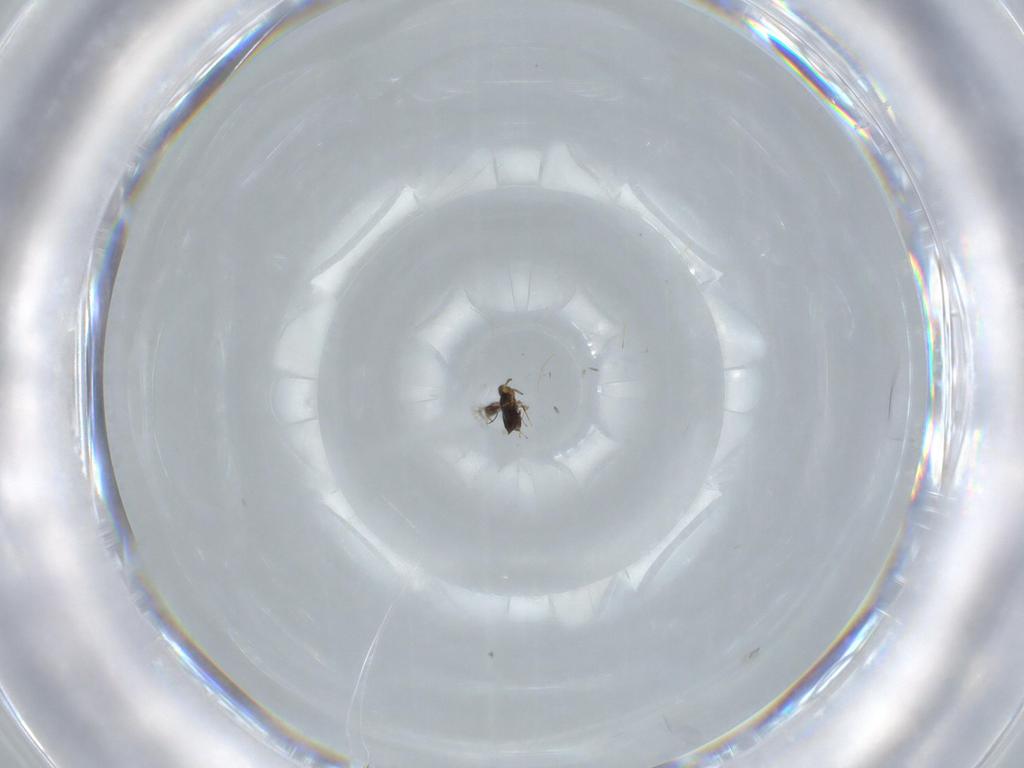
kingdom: Animalia
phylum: Arthropoda
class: Insecta
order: Hymenoptera
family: Signiphoridae
